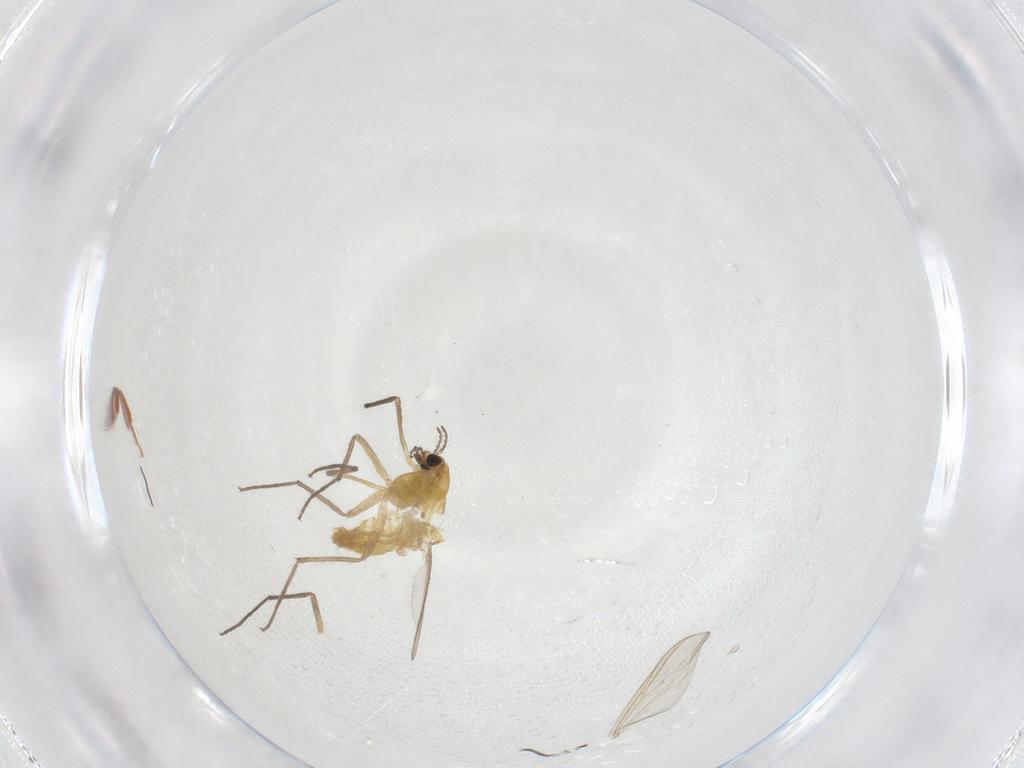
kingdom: Animalia
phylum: Arthropoda
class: Insecta
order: Diptera
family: Chironomidae
